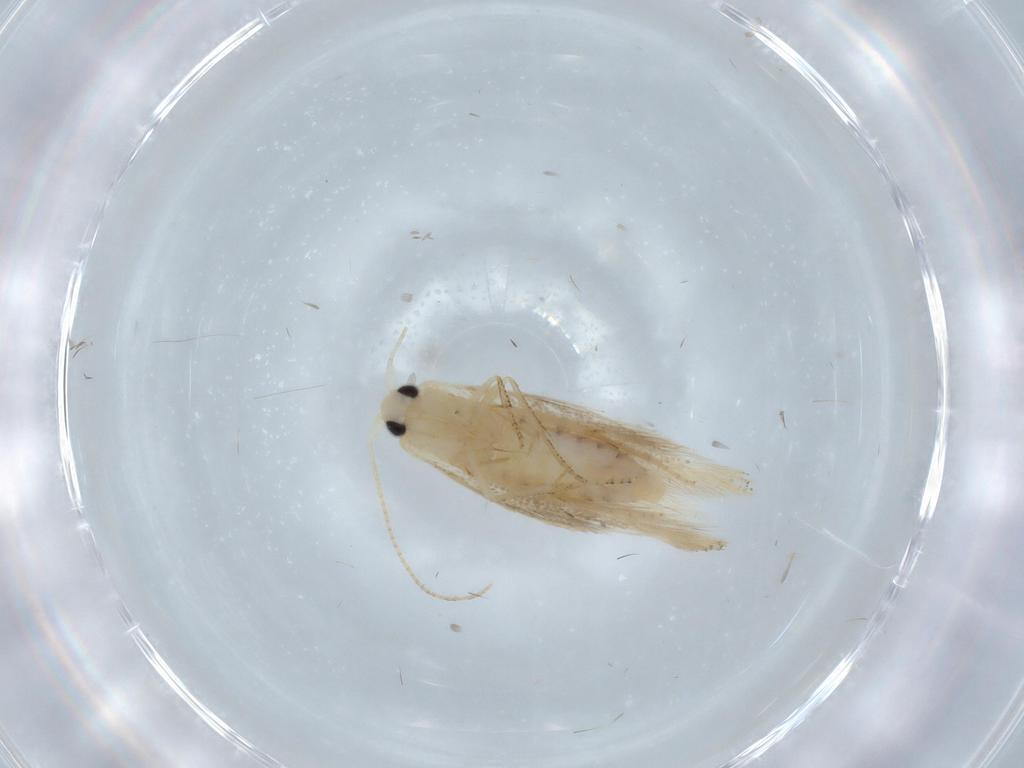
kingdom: Animalia
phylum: Arthropoda
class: Insecta
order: Lepidoptera
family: Bucculatricidae
